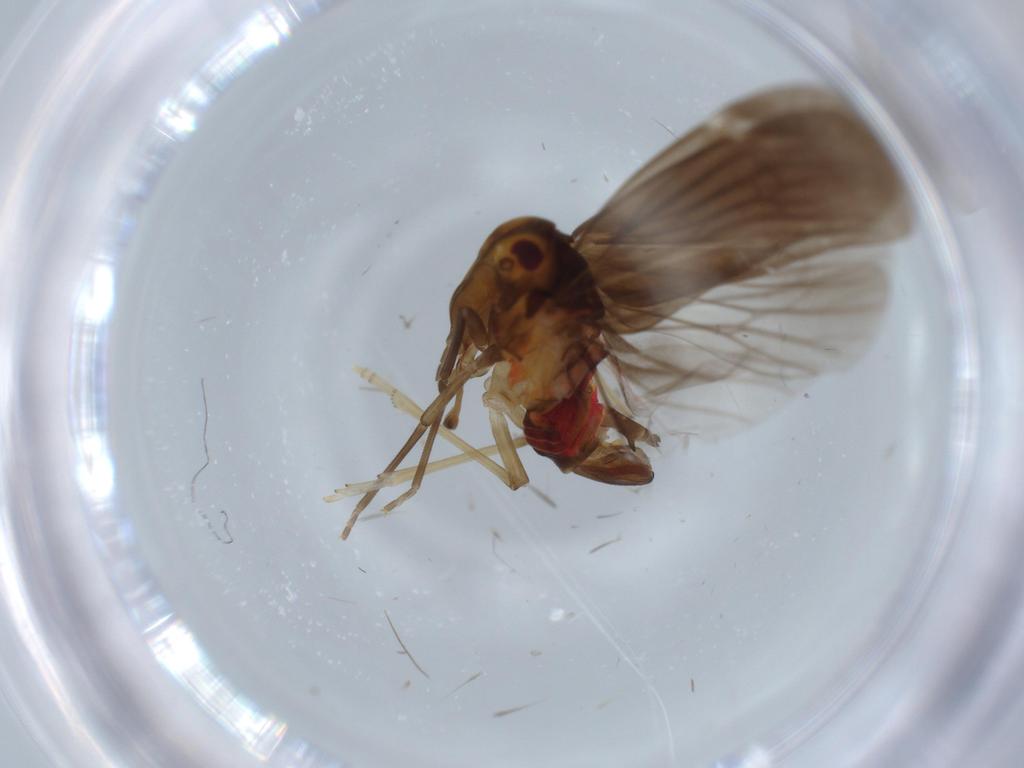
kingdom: Animalia
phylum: Arthropoda
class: Insecta
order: Hemiptera
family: Derbidae
